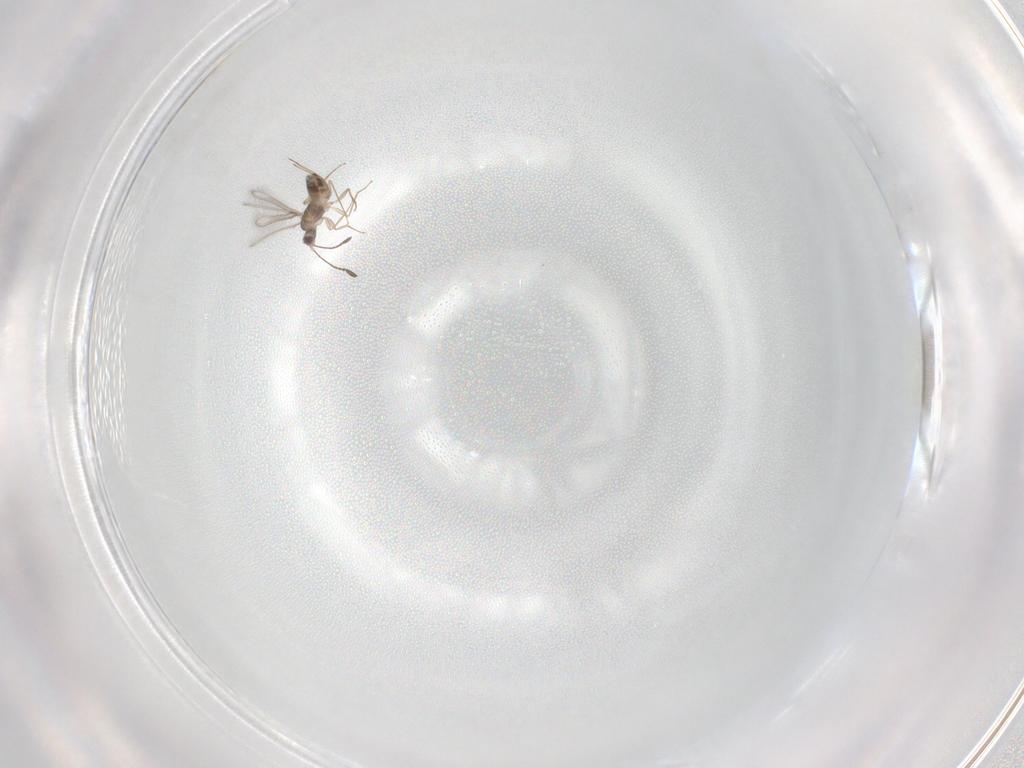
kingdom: Animalia
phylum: Arthropoda
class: Insecta
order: Hymenoptera
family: Mymaridae
